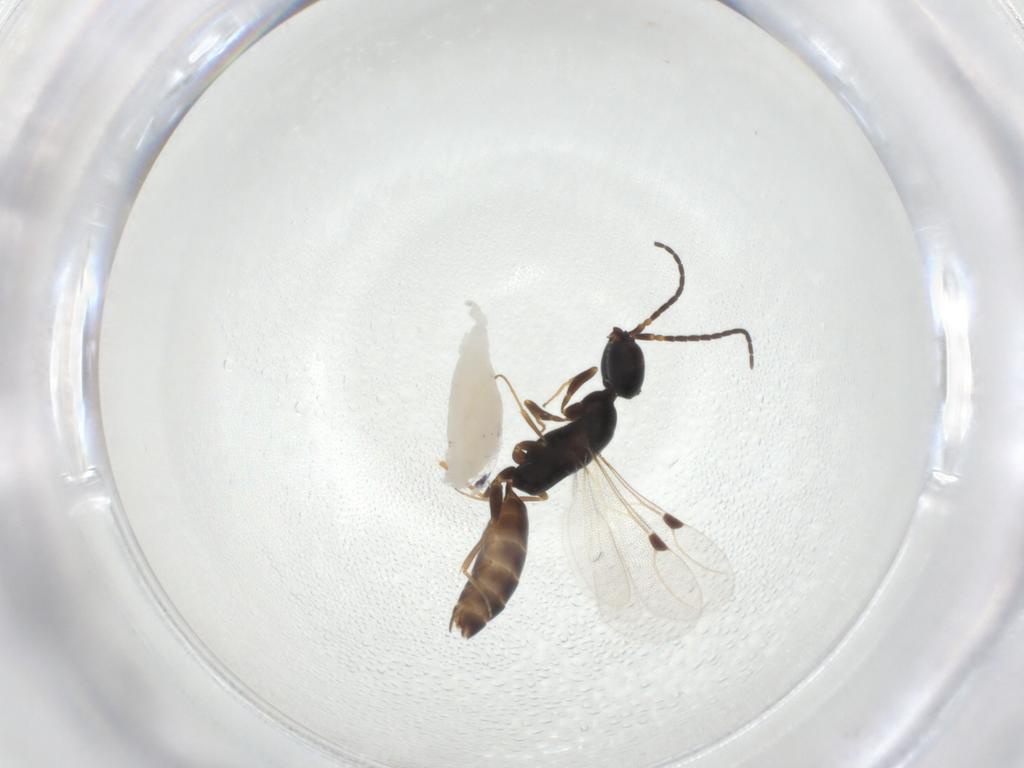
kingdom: Animalia
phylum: Arthropoda
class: Insecta
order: Hymenoptera
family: Bethylidae
